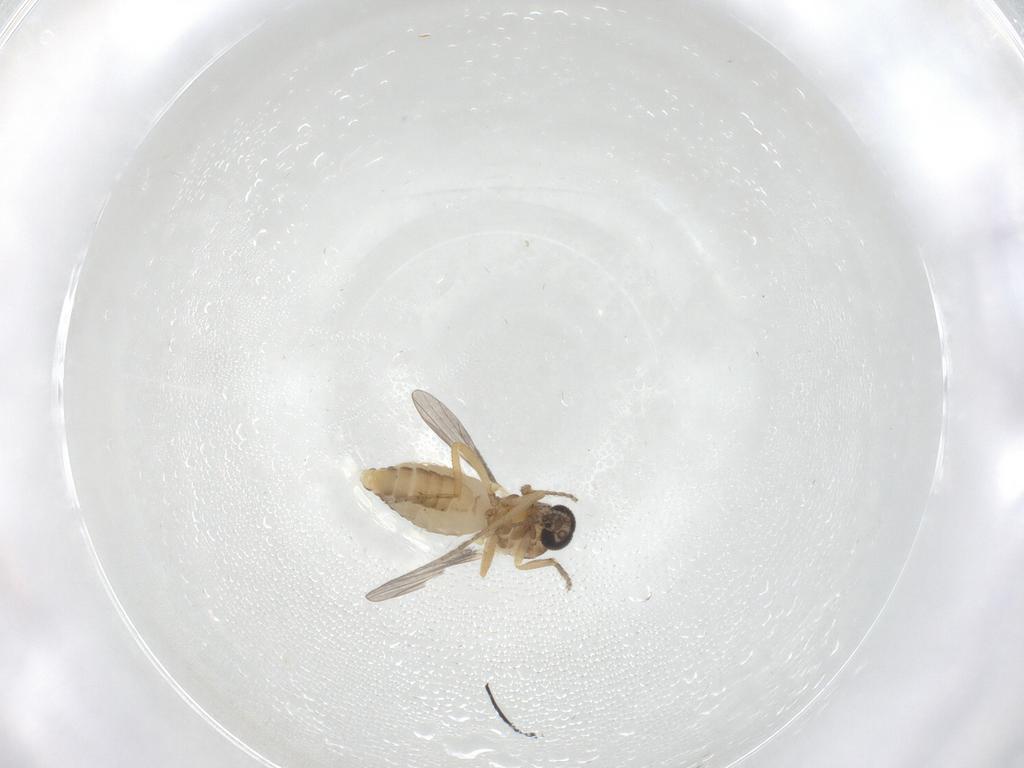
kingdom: Animalia
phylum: Arthropoda
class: Insecta
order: Diptera
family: Ceratopogonidae
